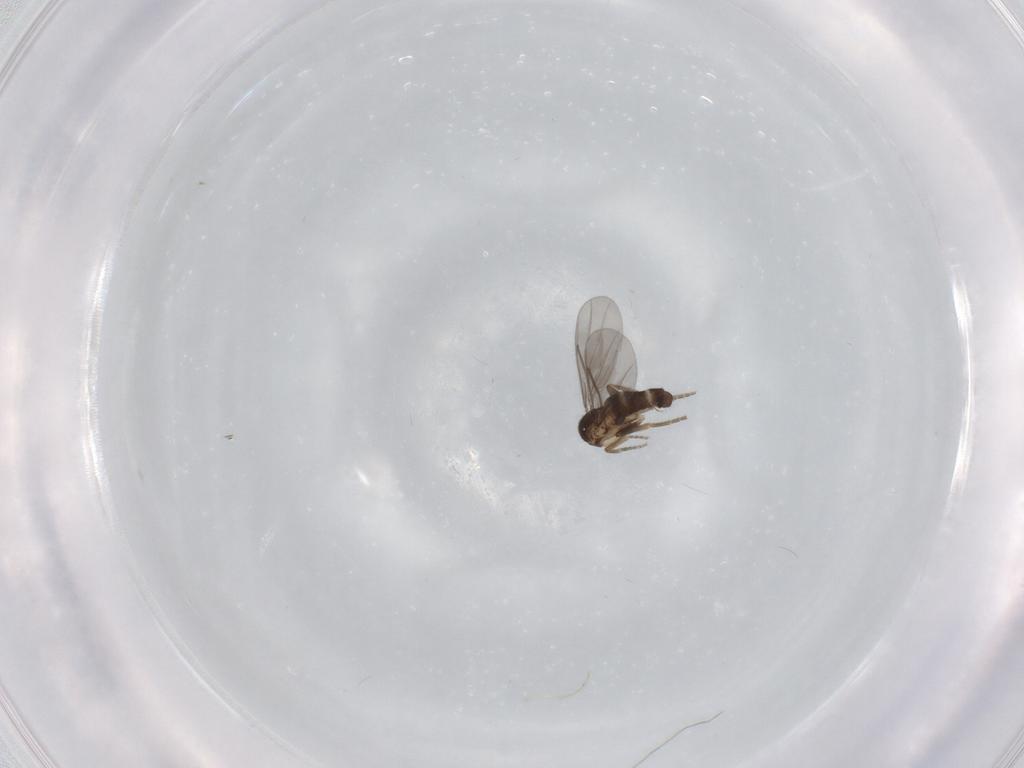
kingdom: Animalia
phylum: Arthropoda
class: Insecta
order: Diptera
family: Chironomidae
